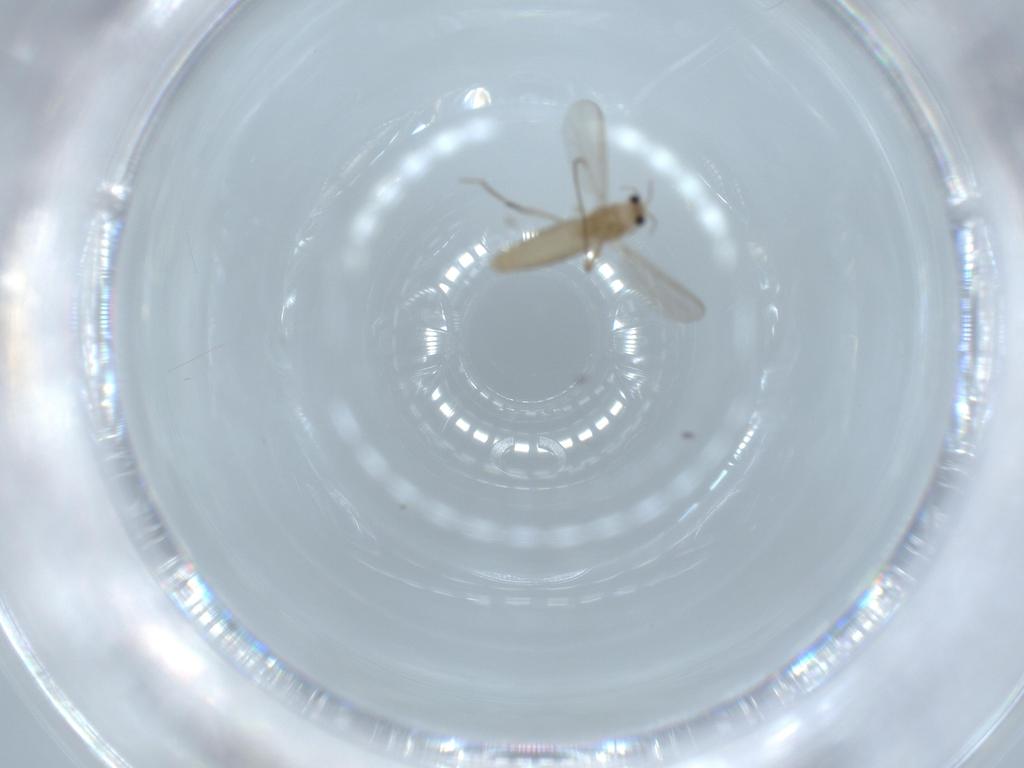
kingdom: Animalia
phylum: Arthropoda
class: Insecta
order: Diptera
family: Chironomidae
